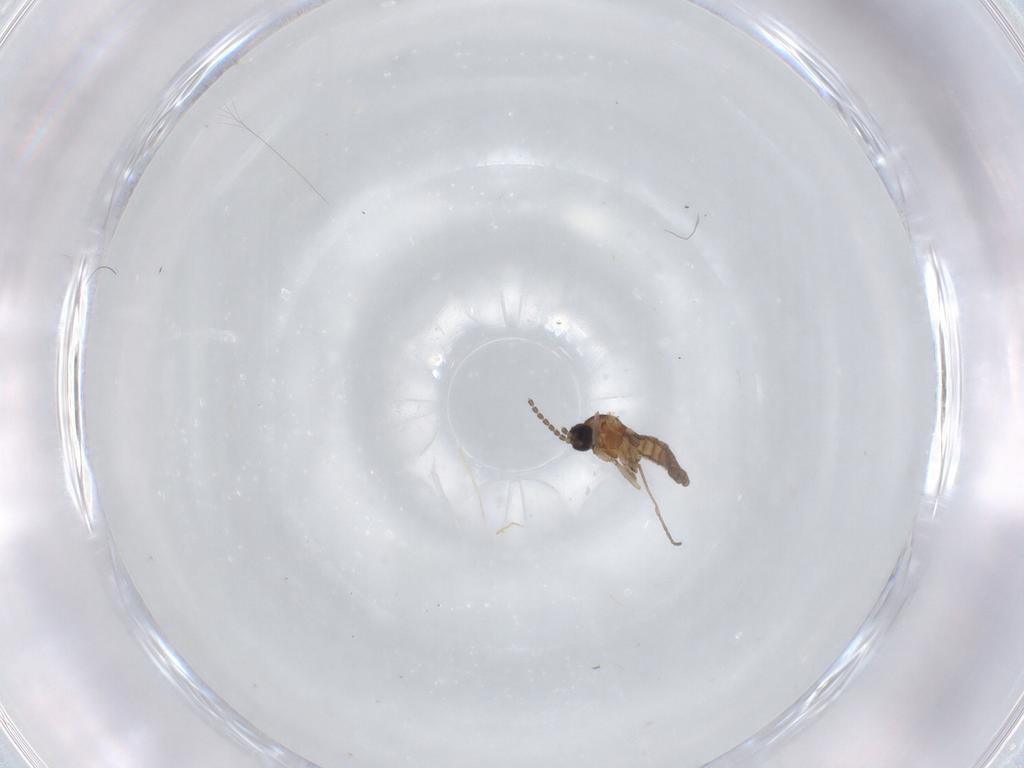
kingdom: Animalia
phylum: Arthropoda
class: Insecta
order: Diptera
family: Sciaridae
